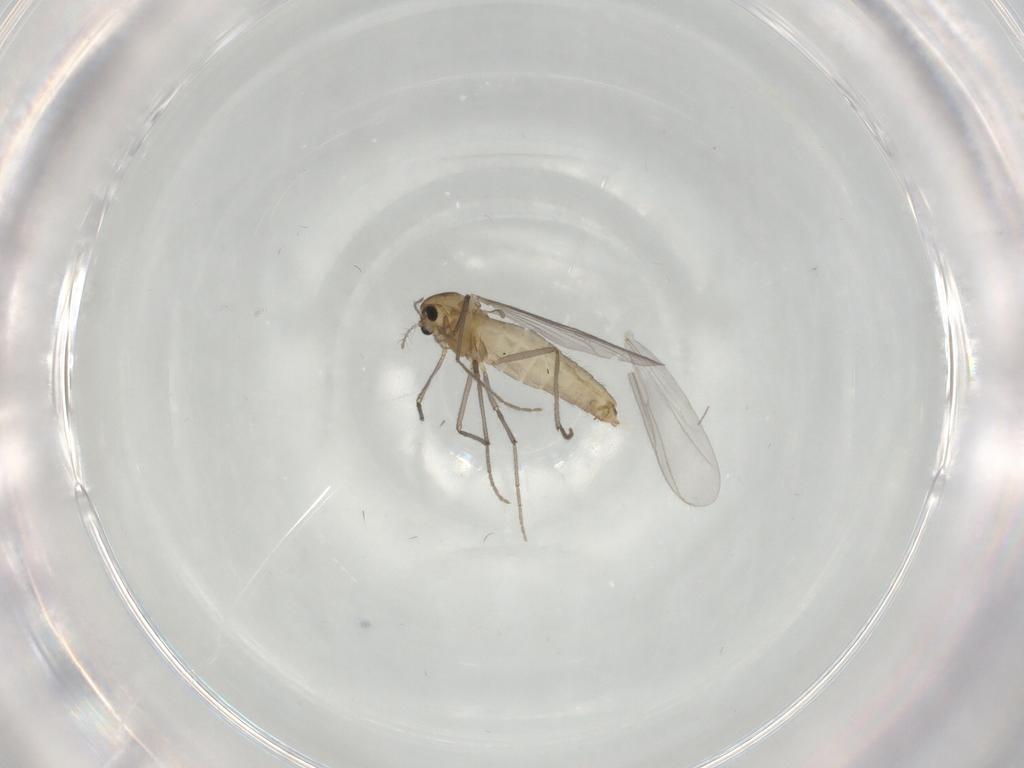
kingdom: Animalia
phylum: Arthropoda
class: Insecta
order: Diptera
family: Chironomidae
